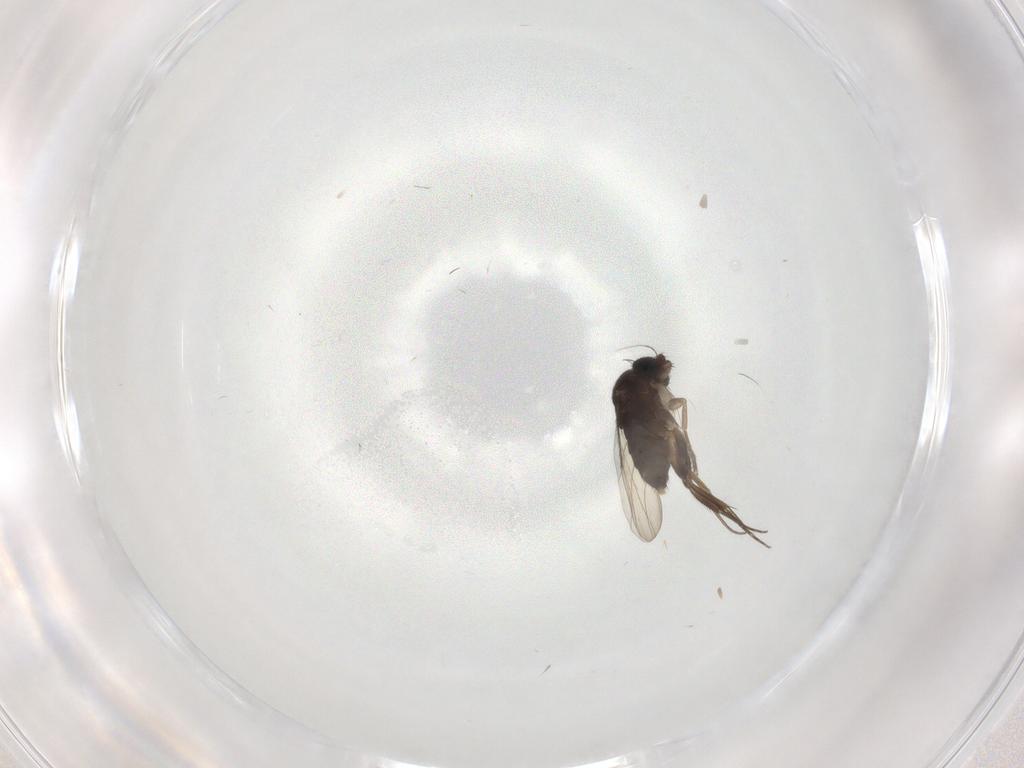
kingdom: Animalia
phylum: Arthropoda
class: Insecta
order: Diptera
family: Phoridae
